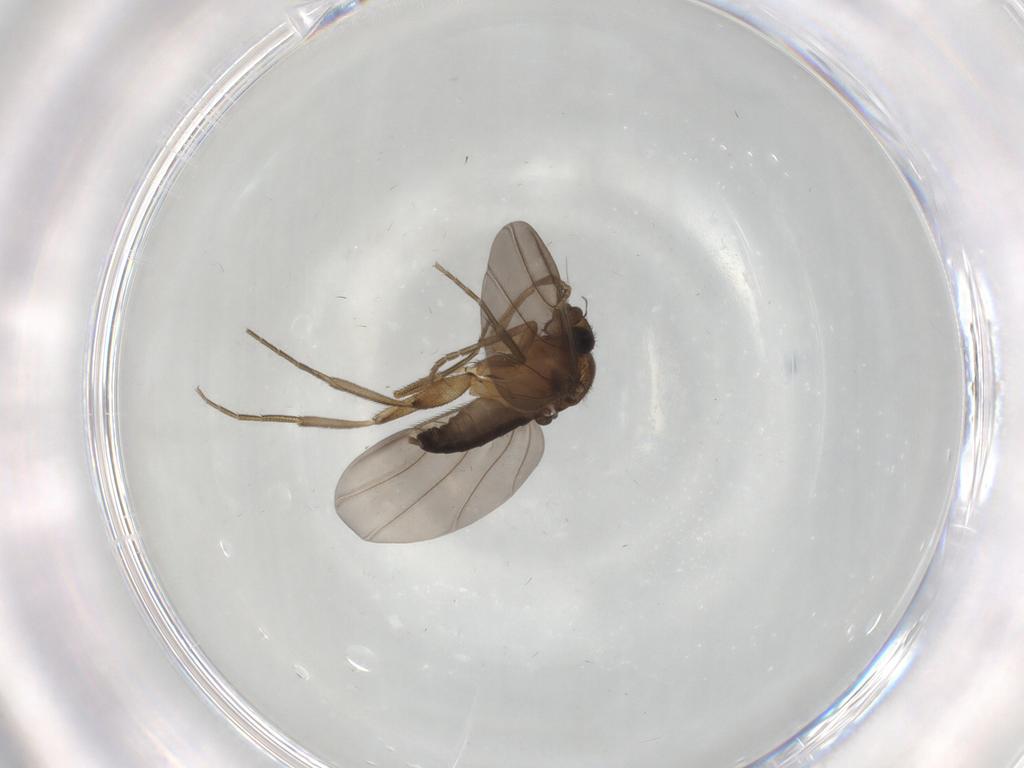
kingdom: Animalia
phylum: Arthropoda
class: Insecta
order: Diptera
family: Phoridae
